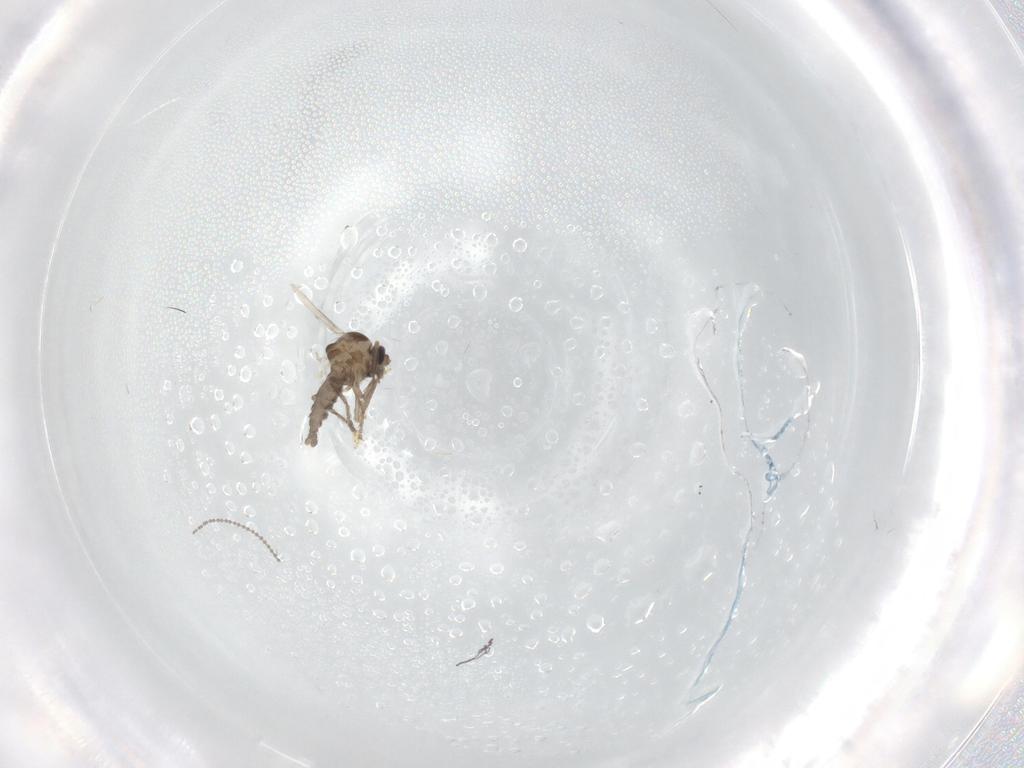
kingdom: Animalia
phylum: Arthropoda
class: Insecta
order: Diptera
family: Ceratopogonidae
